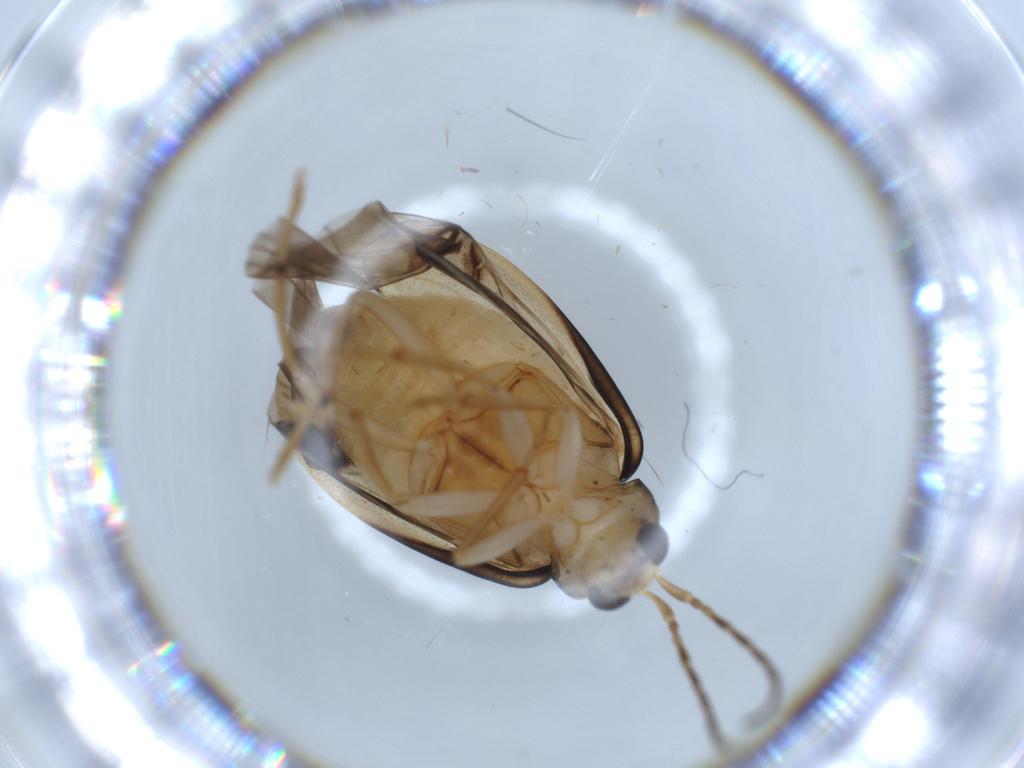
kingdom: Animalia
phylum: Arthropoda
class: Insecta
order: Coleoptera
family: Chrysomelidae
